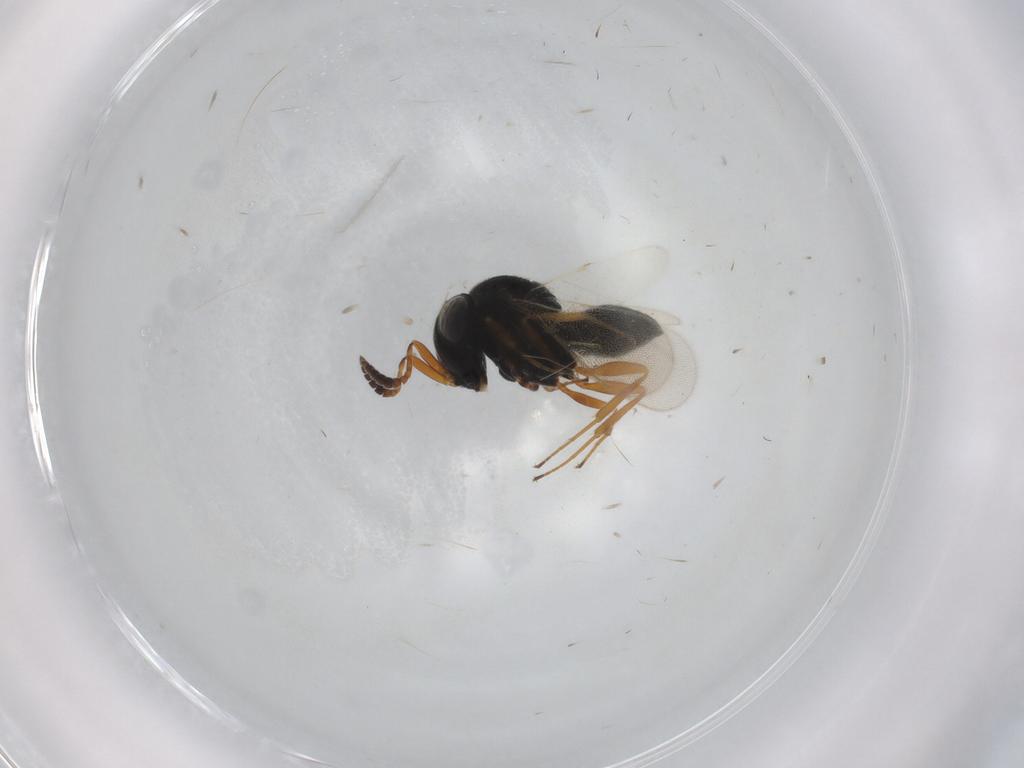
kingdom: Animalia
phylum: Arthropoda
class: Insecta
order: Hymenoptera
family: Scelionidae
